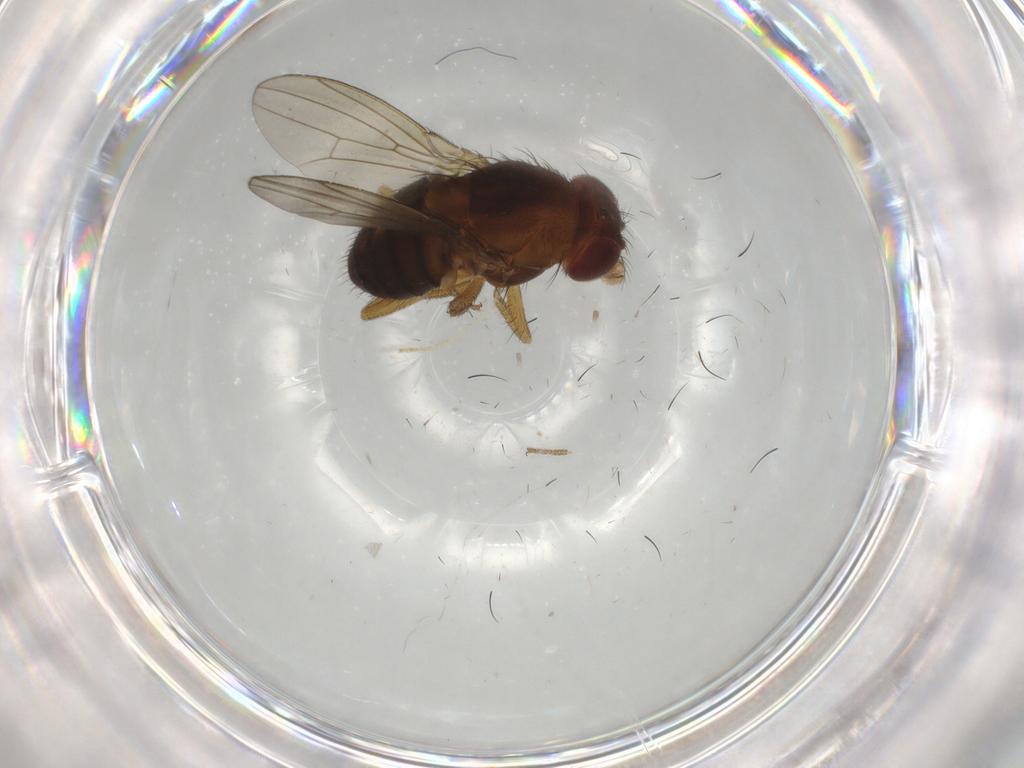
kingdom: Animalia
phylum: Arthropoda
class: Insecta
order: Diptera
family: Drosophilidae
